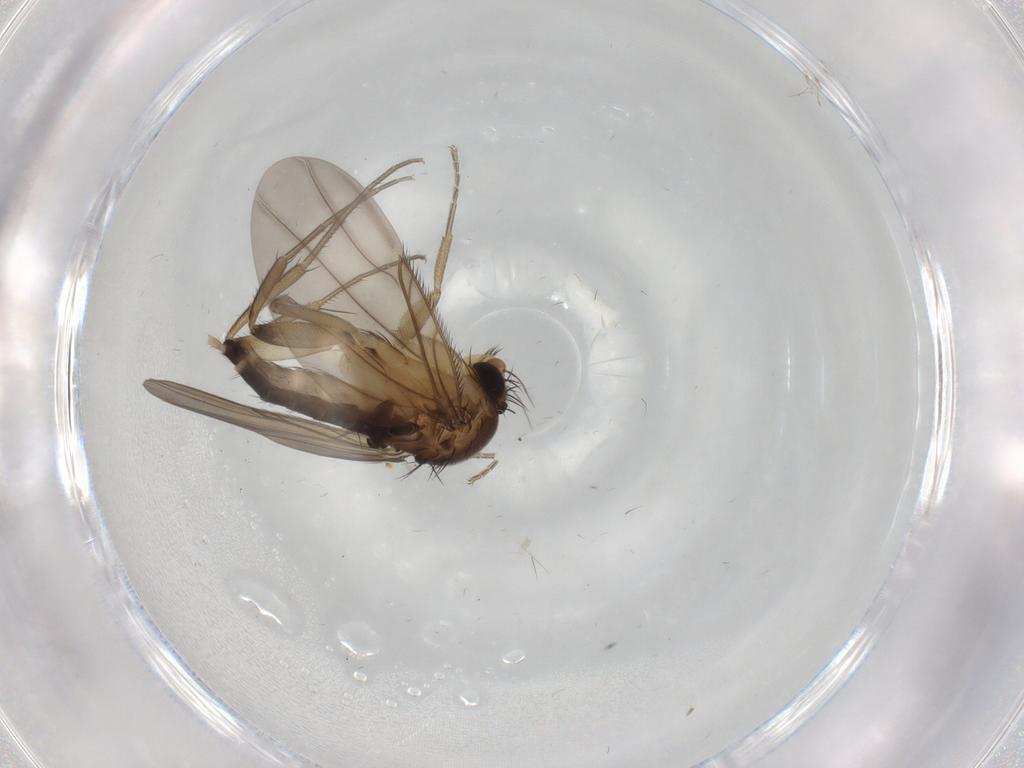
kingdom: Animalia
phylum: Arthropoda
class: Insecta
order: Diptera
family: Phoridae
